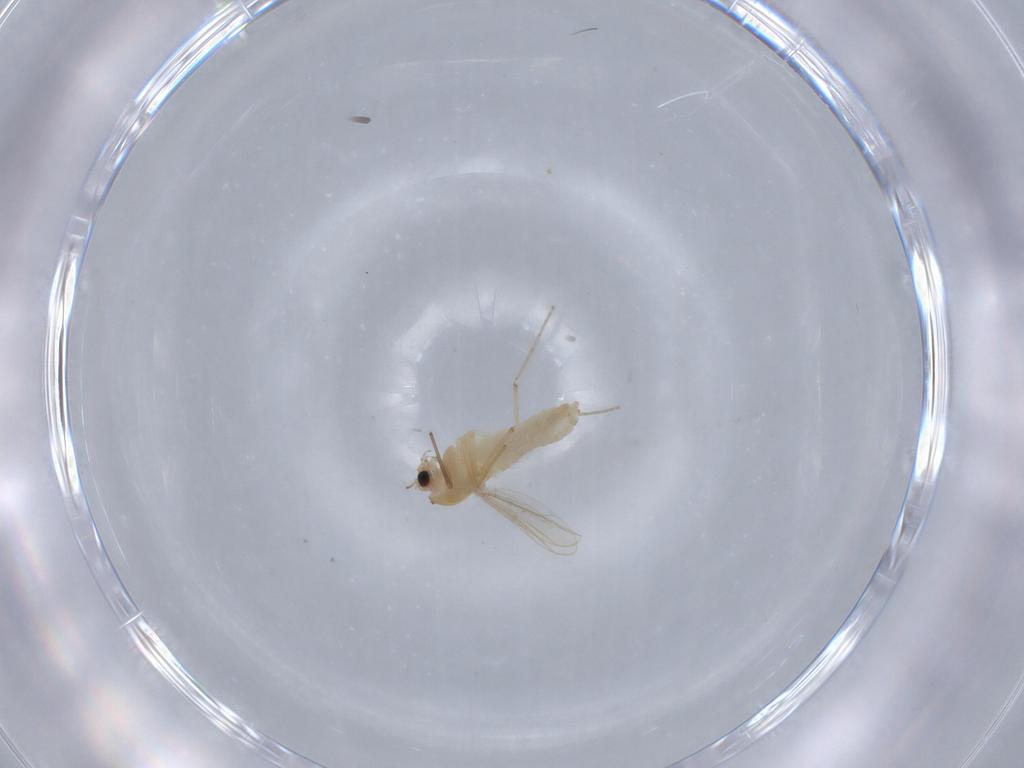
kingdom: Animalia
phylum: Arthropoda
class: Insecta
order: Diptera
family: Chironomidae
